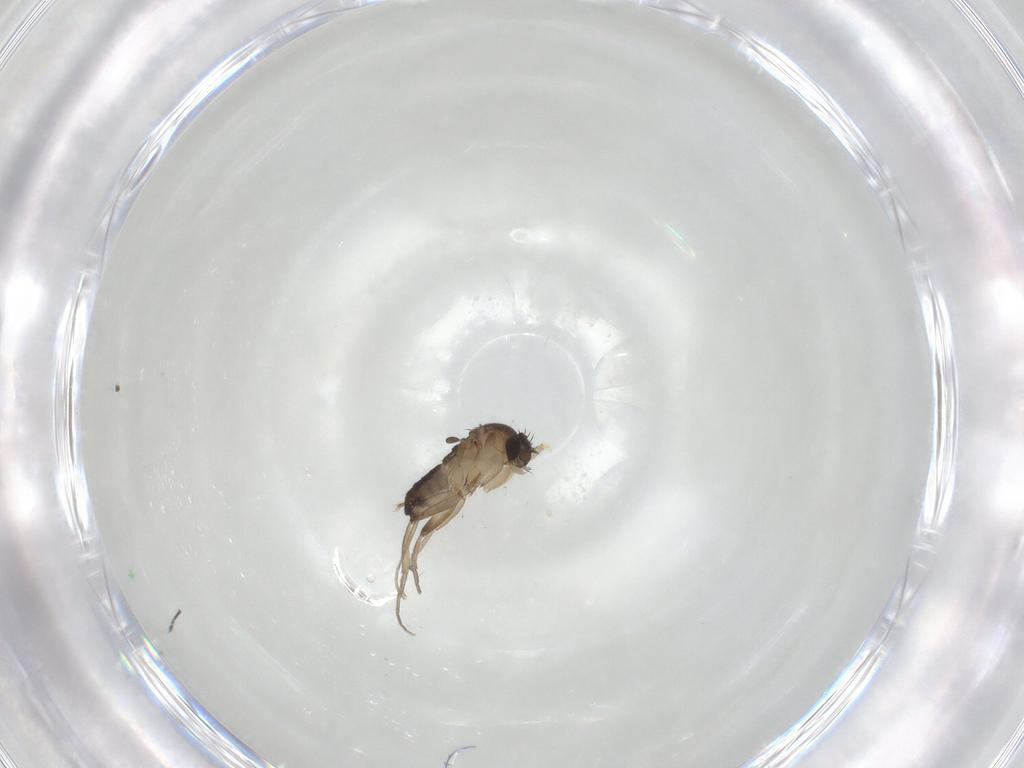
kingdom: Animalia
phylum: Arthropoda
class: Insecta
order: Diptera
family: Phoridae
